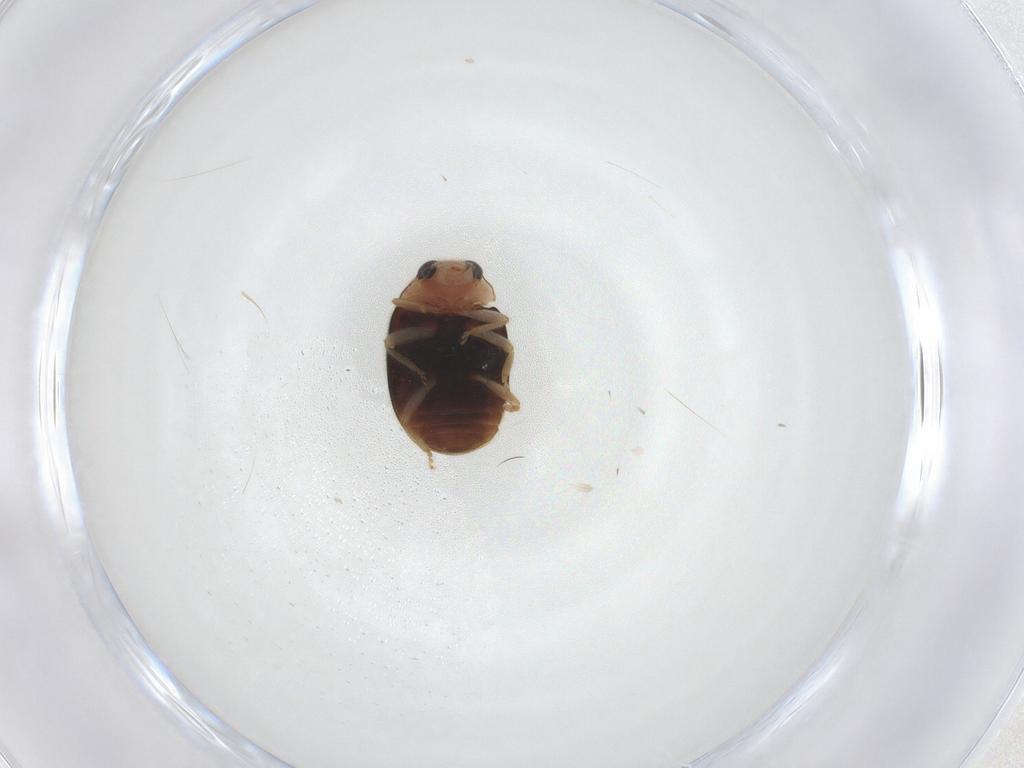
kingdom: Animalia
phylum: Arthropoda
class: Insecta
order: Coleoptera
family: Coccinellidae
